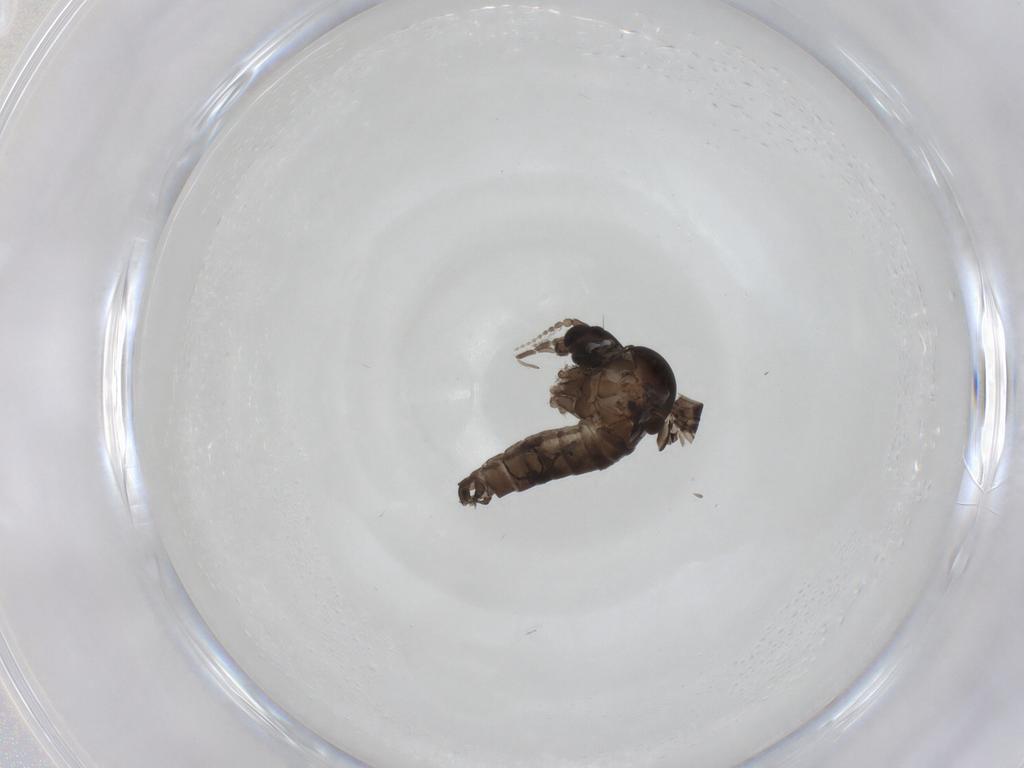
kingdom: Animalia
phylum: Arthropoda
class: Insecta
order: Diptera
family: Psychodidae
